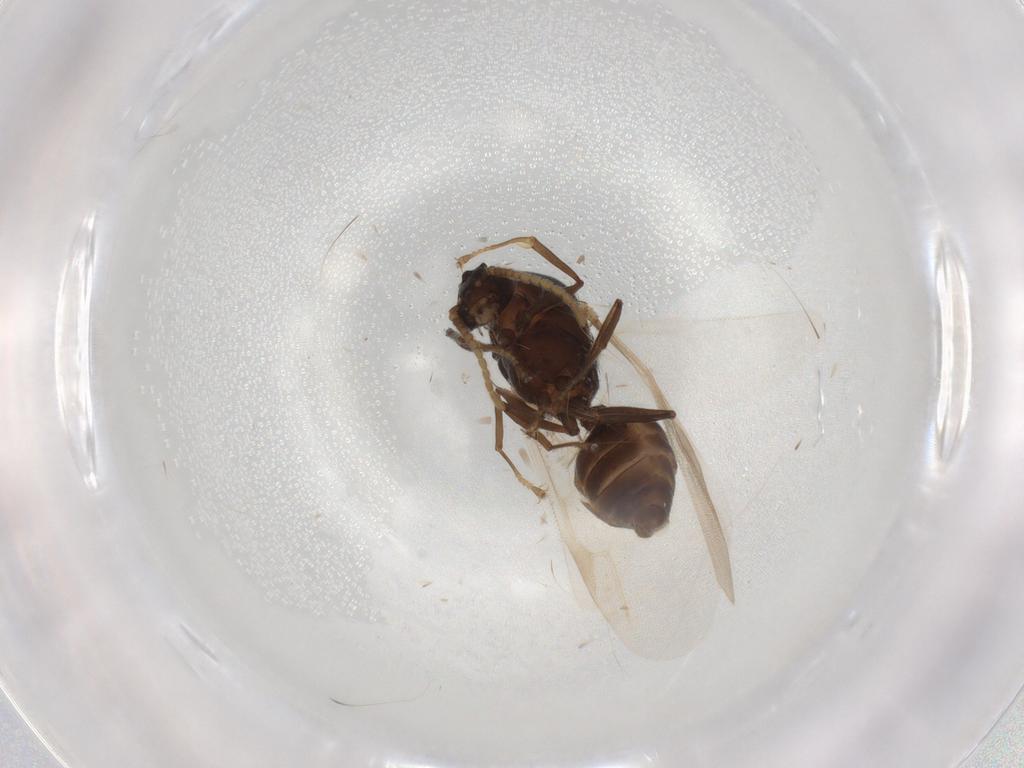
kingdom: Animalia
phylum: Arthropoda
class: Insecta
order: Hymenoptera
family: Formicidae
